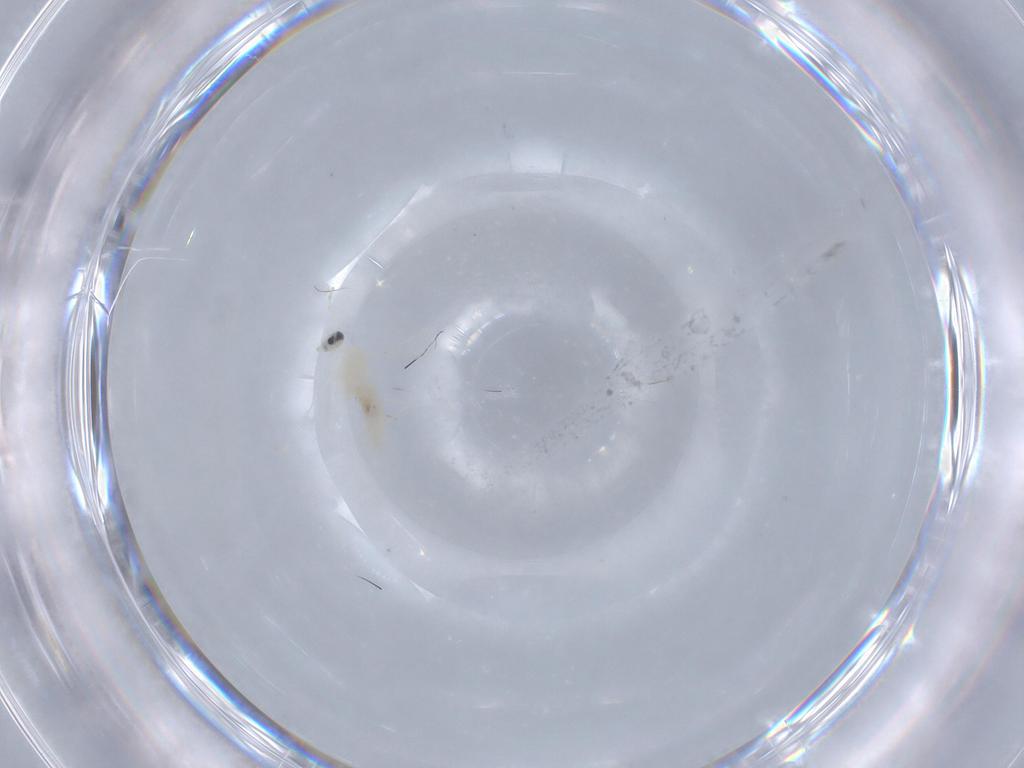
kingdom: Animalia
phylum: Arthropoda
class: Insecta
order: Diptera
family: Cecidomyiidae
